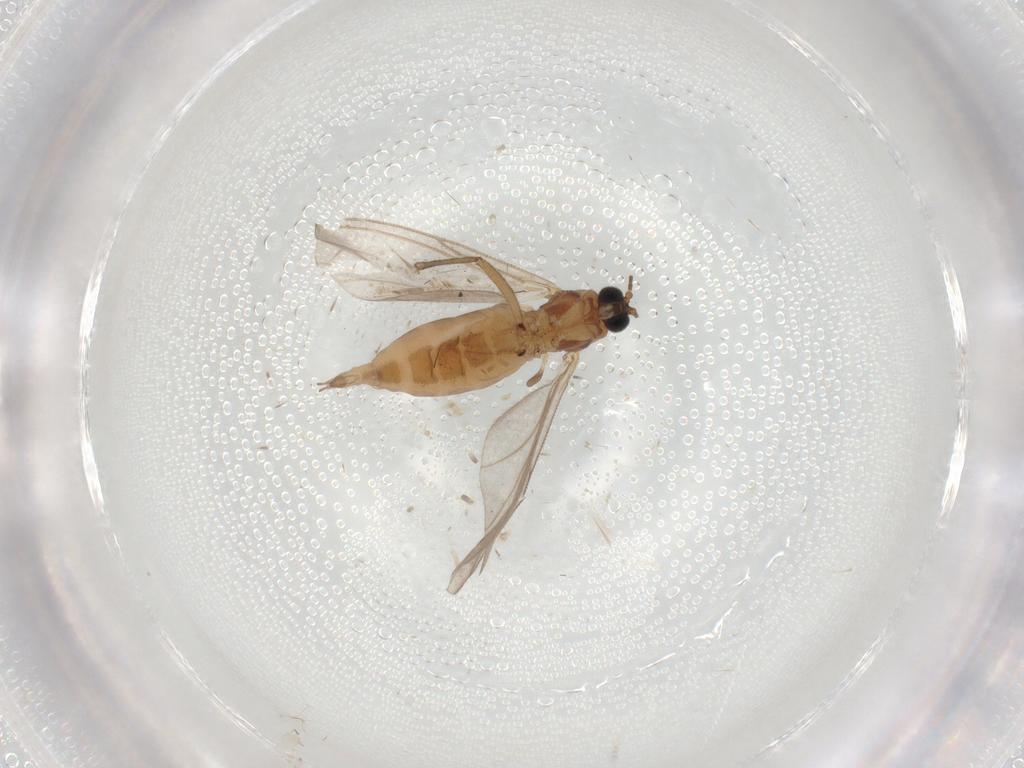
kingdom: Animalia
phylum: Arthropoda
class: Insecta
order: Diptera
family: Sciaridae
